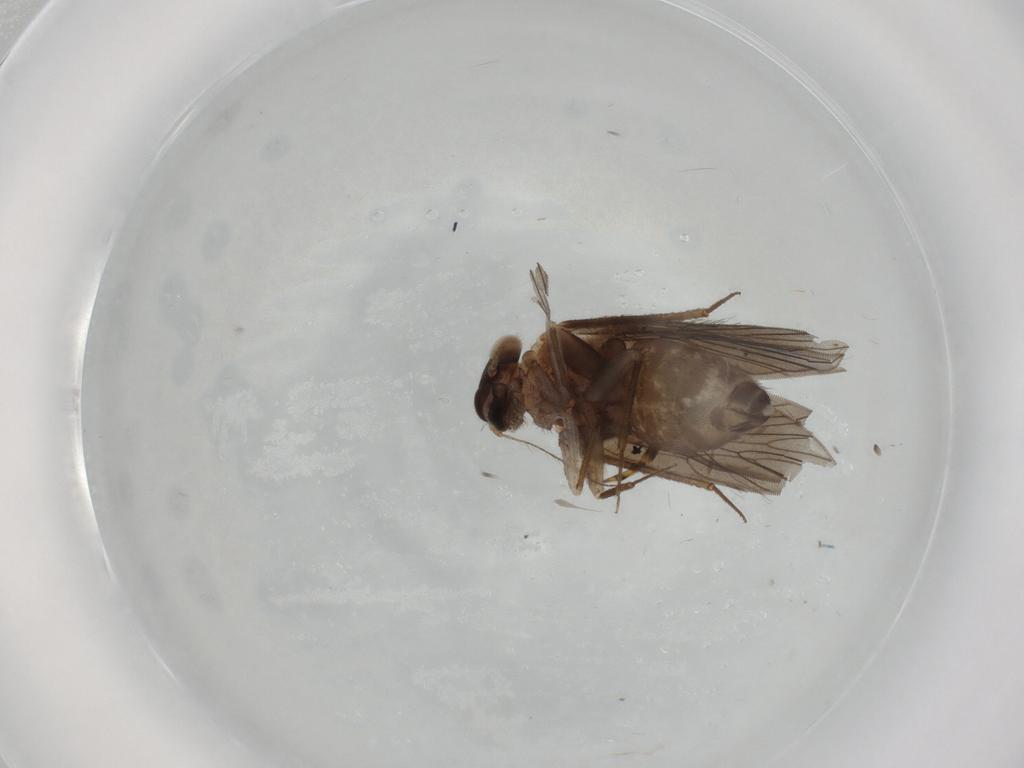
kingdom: Animalia
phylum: Arthropoda
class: Insecta
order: Psocodea
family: Lepidopsocidae
